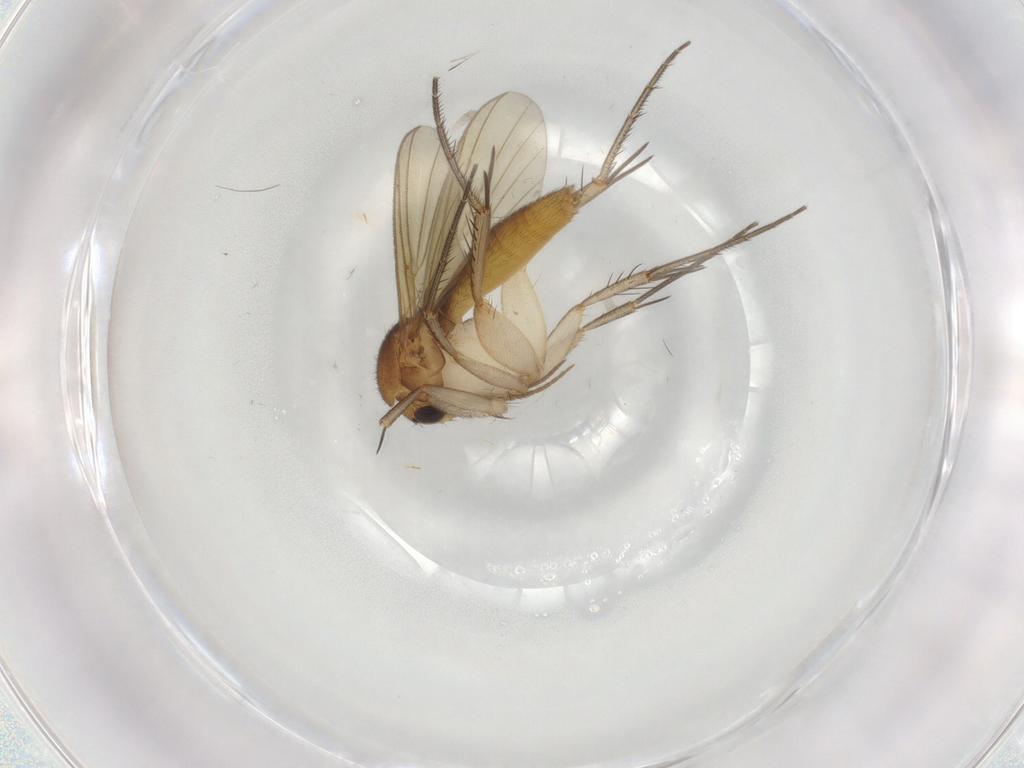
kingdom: Animalia
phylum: Arthropoda
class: Insecta
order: Diptera
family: Mycetophilidae
